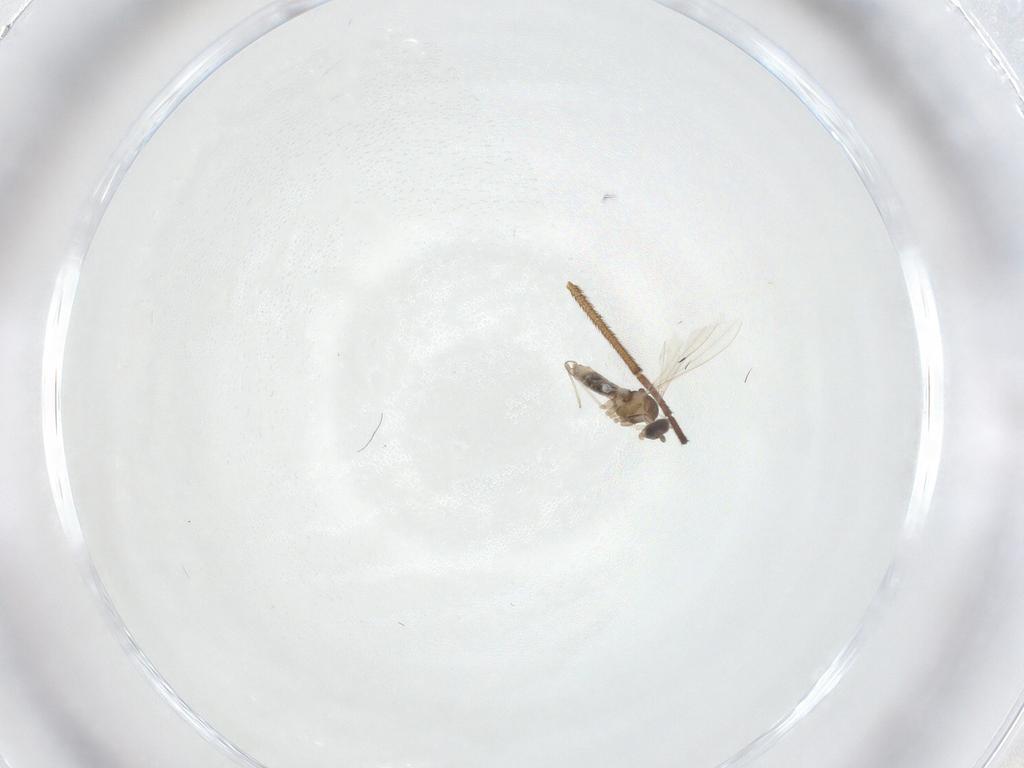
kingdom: Animalia
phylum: Arthropoda
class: Insecta
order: Diptera
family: Cecidomyiidae
